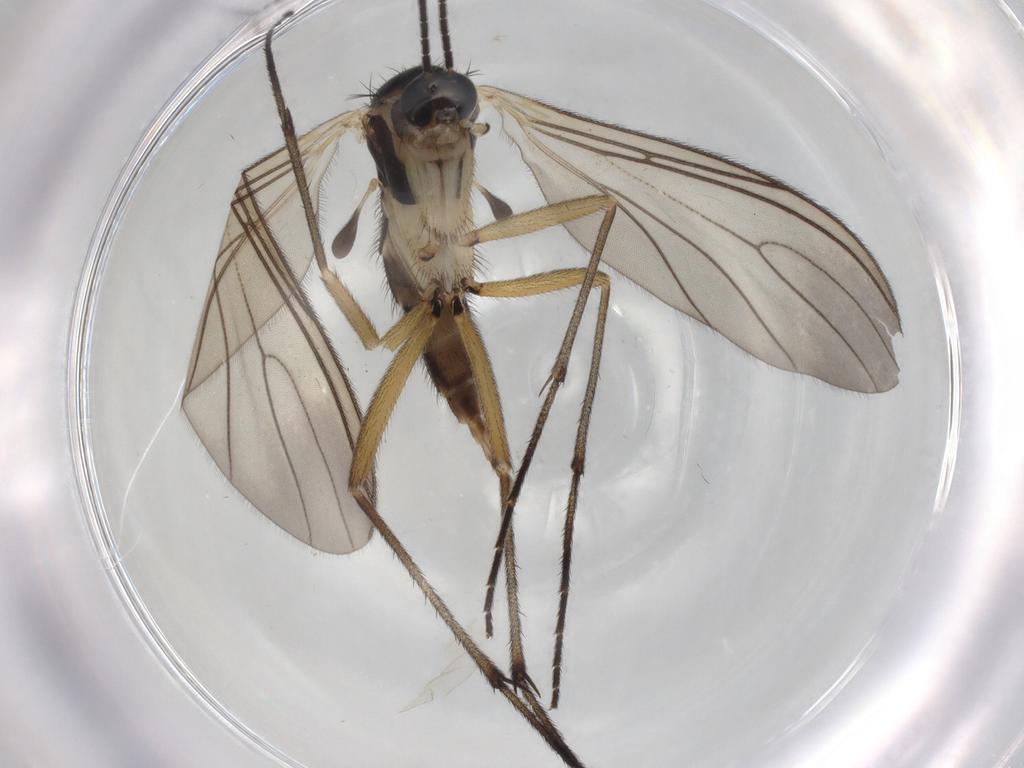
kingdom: Animalia
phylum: Arthropoda
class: Insecta
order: Diptera
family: Sciaridae
